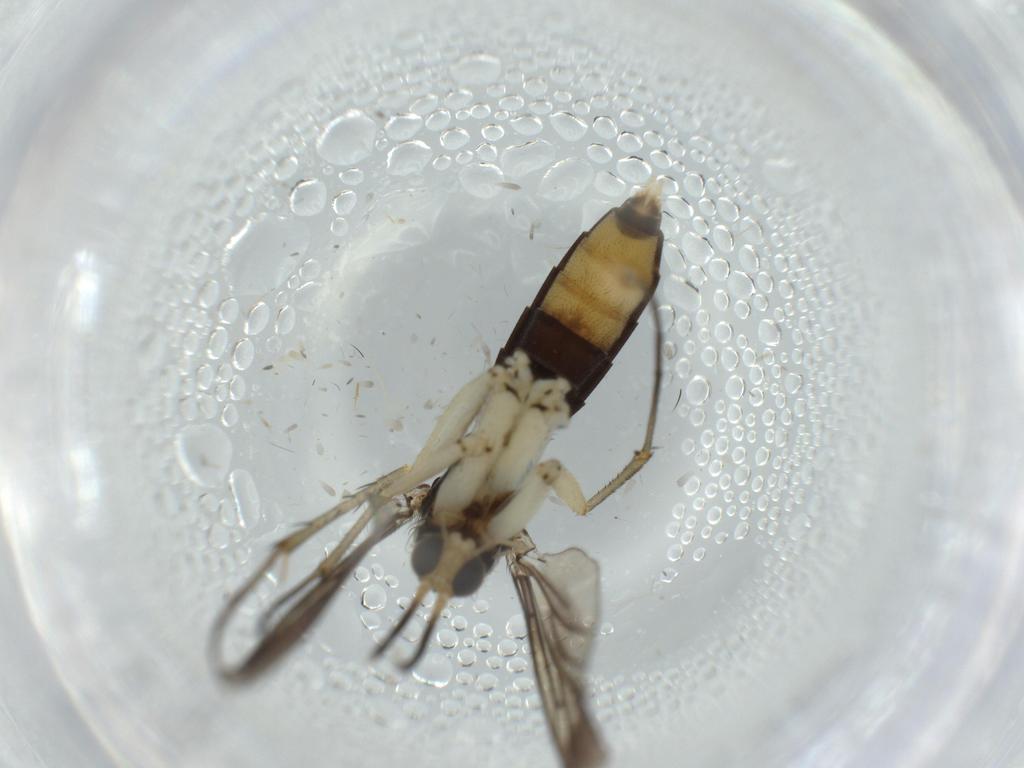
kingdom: Animalia
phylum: Arthropoda
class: Insecta
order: Diptera
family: Mycetophilidae
